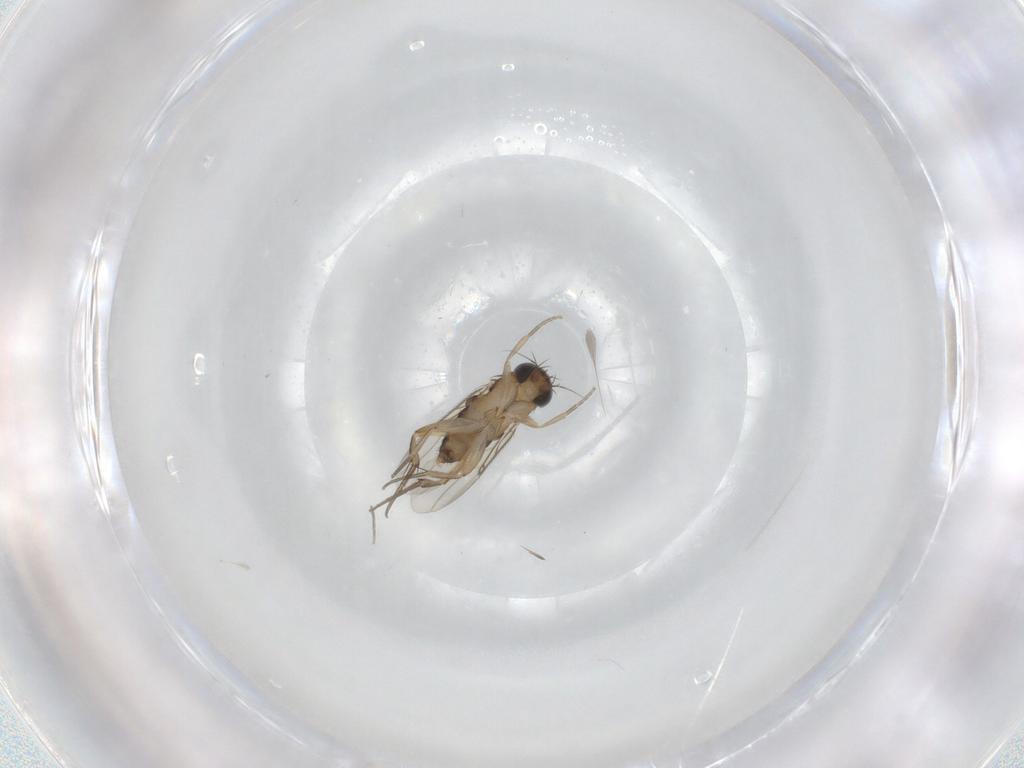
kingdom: Animalia
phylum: Arthropoda
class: Insecta
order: Diptera
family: Phoridae
